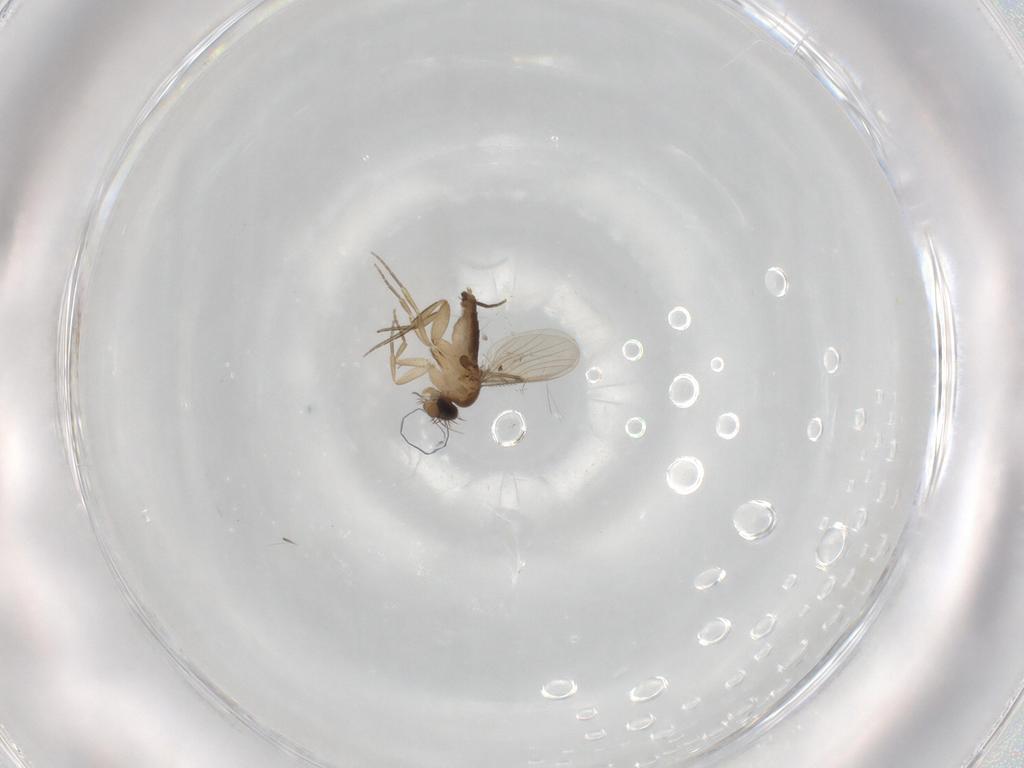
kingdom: Animalia
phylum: Arthropoda
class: Insecta
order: Diptera
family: Phoridae
